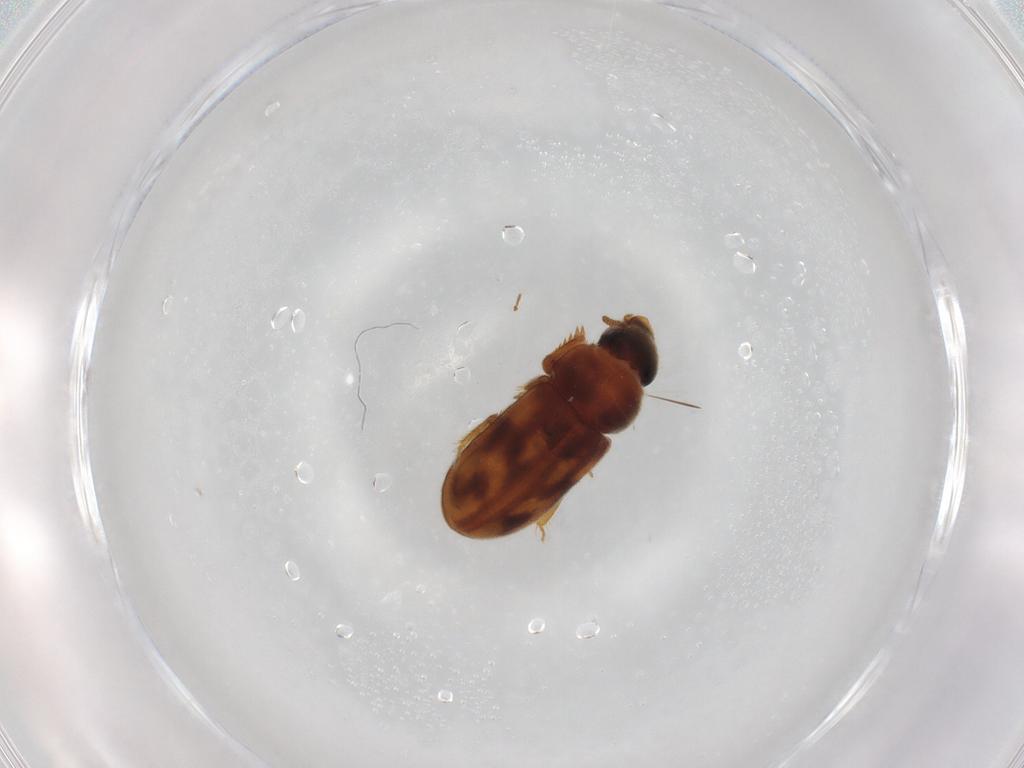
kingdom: Animalia
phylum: Arthropoda
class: Insecta
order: Coleoptera
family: Heteroceridae
